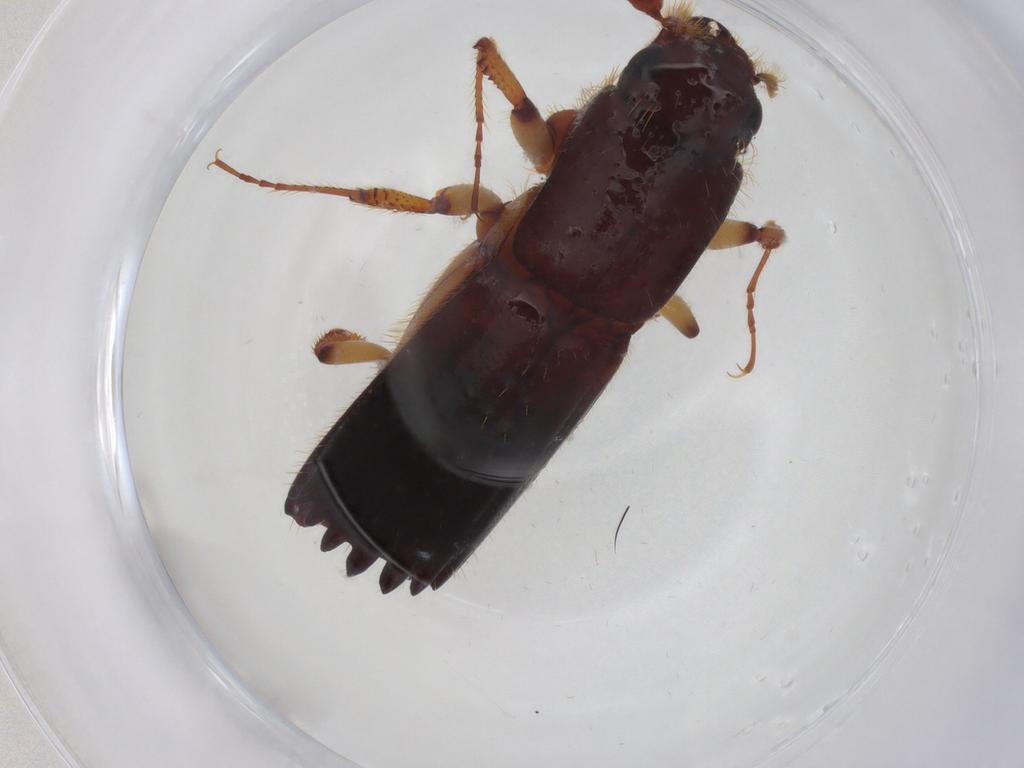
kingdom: Animalia
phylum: Arthropoda
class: Insecta
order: Coleoptera
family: Curculionidae
